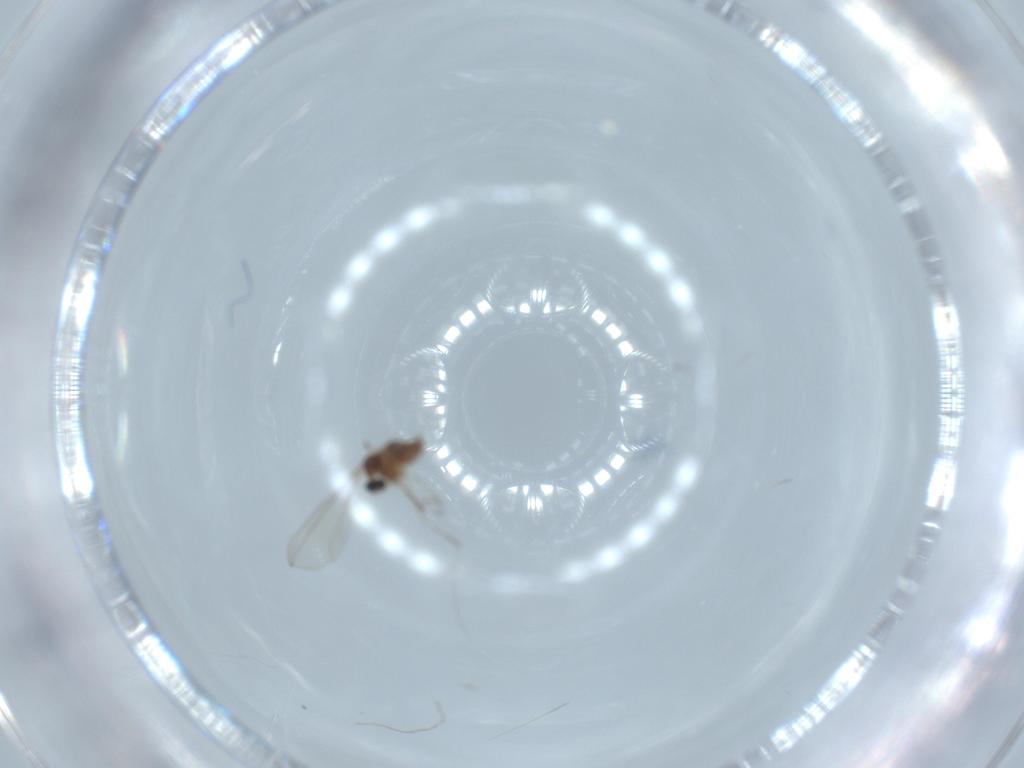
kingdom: Animalia
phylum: Arthropoda
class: Insecta
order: Diptera
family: Cecidomyiidae
